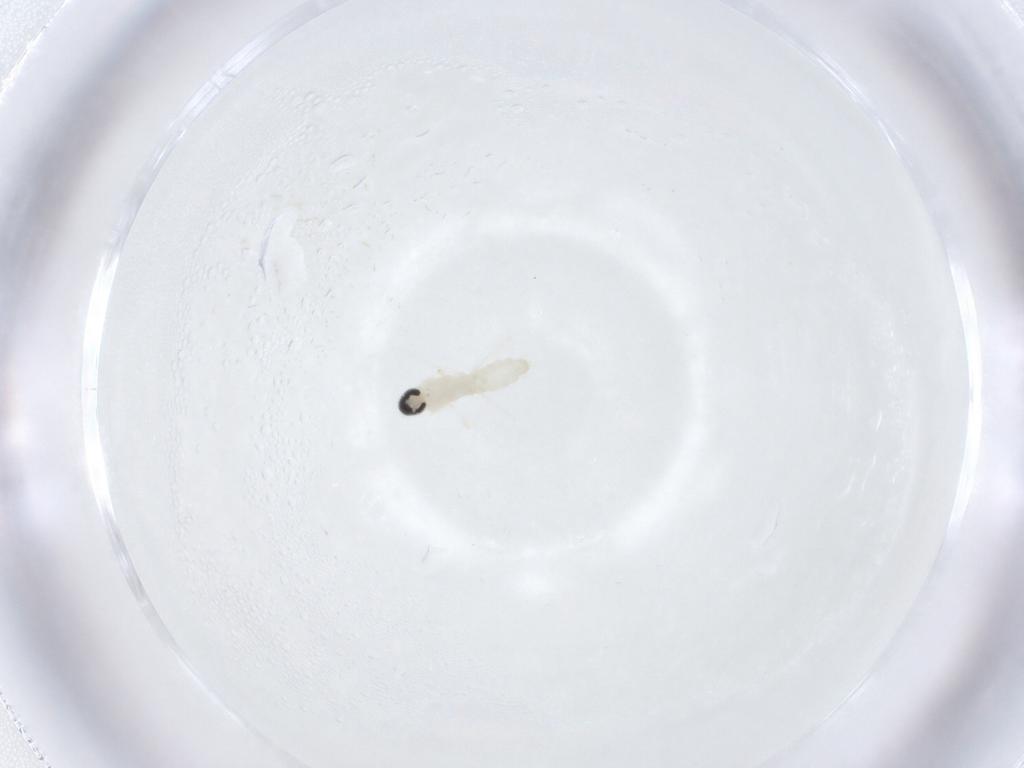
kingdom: Animalia
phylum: Arthropoda
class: Insecta
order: Diptera
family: Cecidomyiidae
